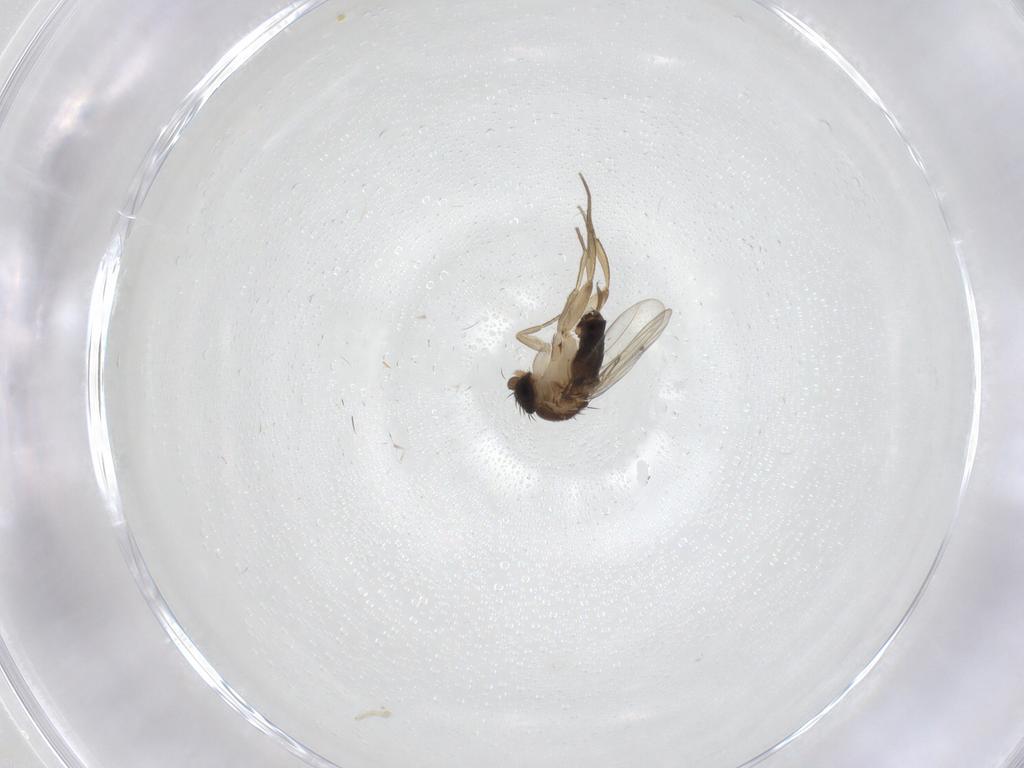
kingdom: Animalia
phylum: Arthropoda
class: Insecta
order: Diptera
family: Phoridae
